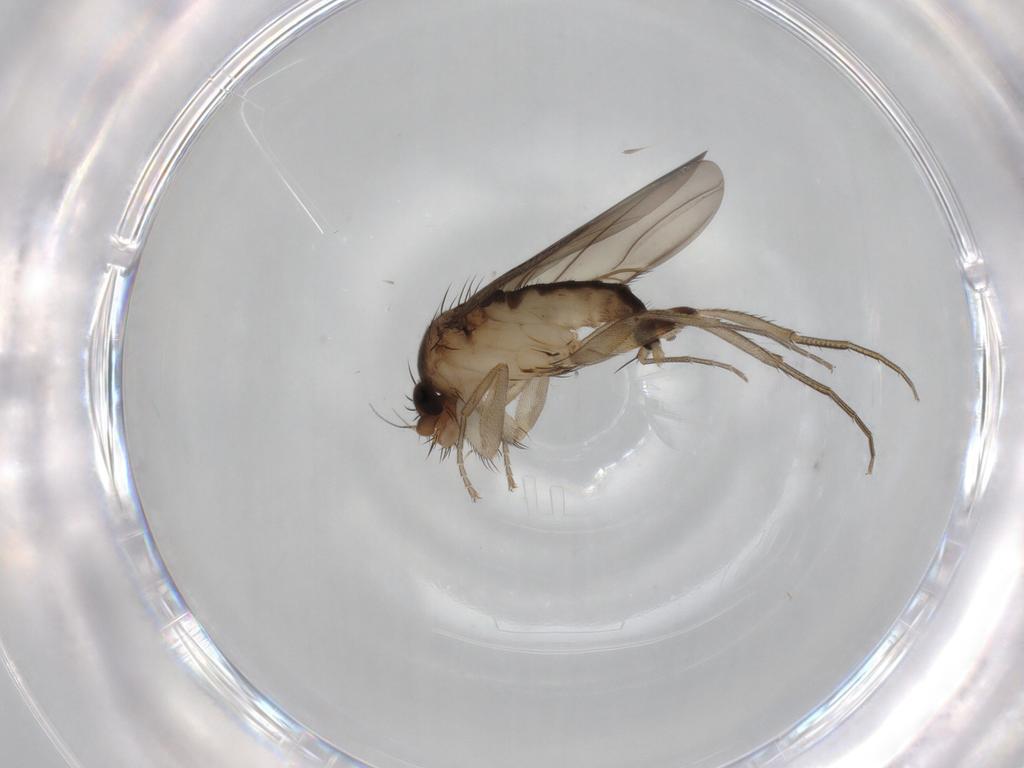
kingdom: Animalia
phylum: Arthropoda
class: Insecta
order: Diptera
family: Phoridae
